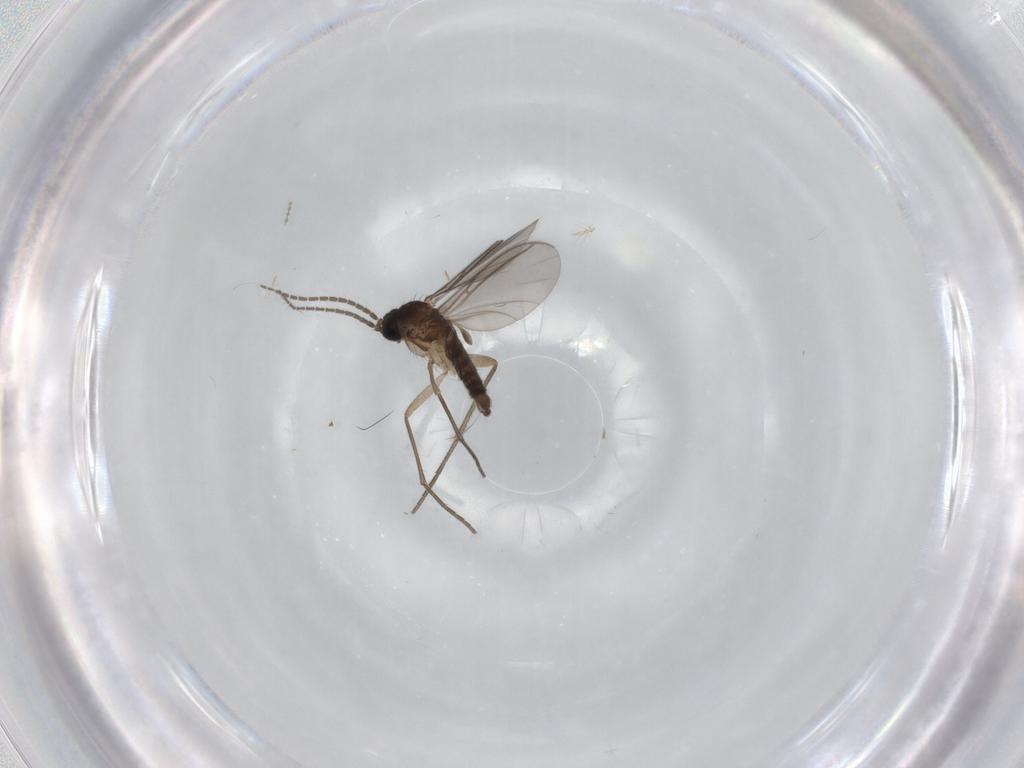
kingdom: Animalia
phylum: Arthropoda
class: Insecta
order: Diptera
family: Sciaridae
